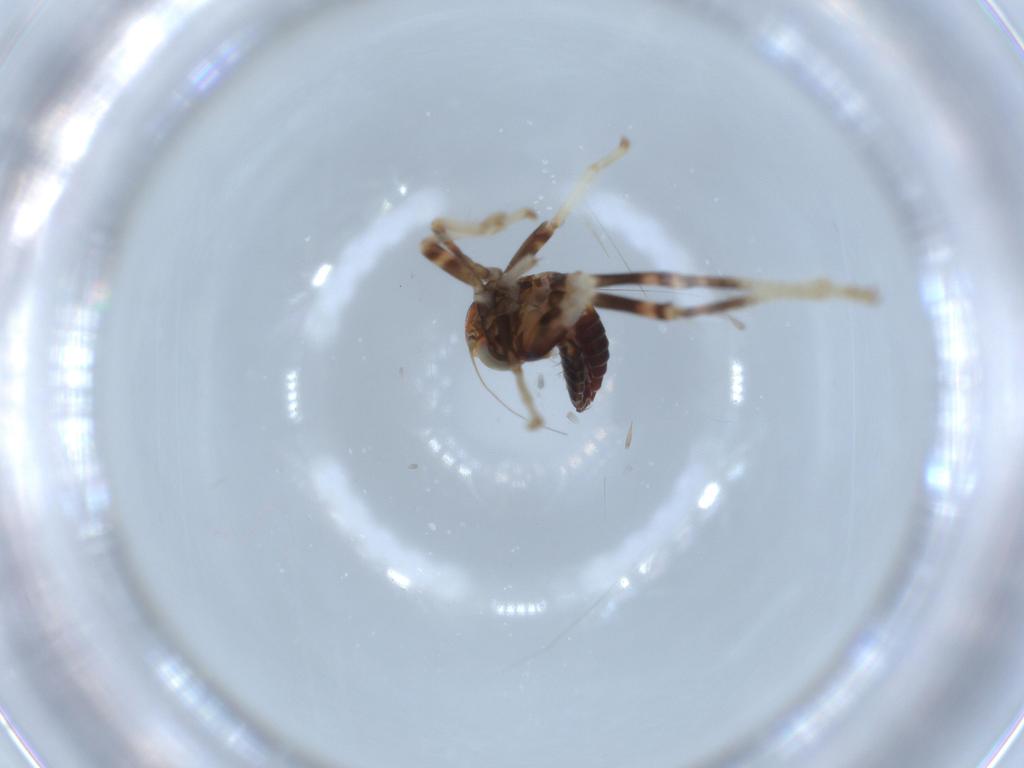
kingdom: Animalia
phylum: Arthropoda
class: Insecta
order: Hemiptera
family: Cicadellidae
